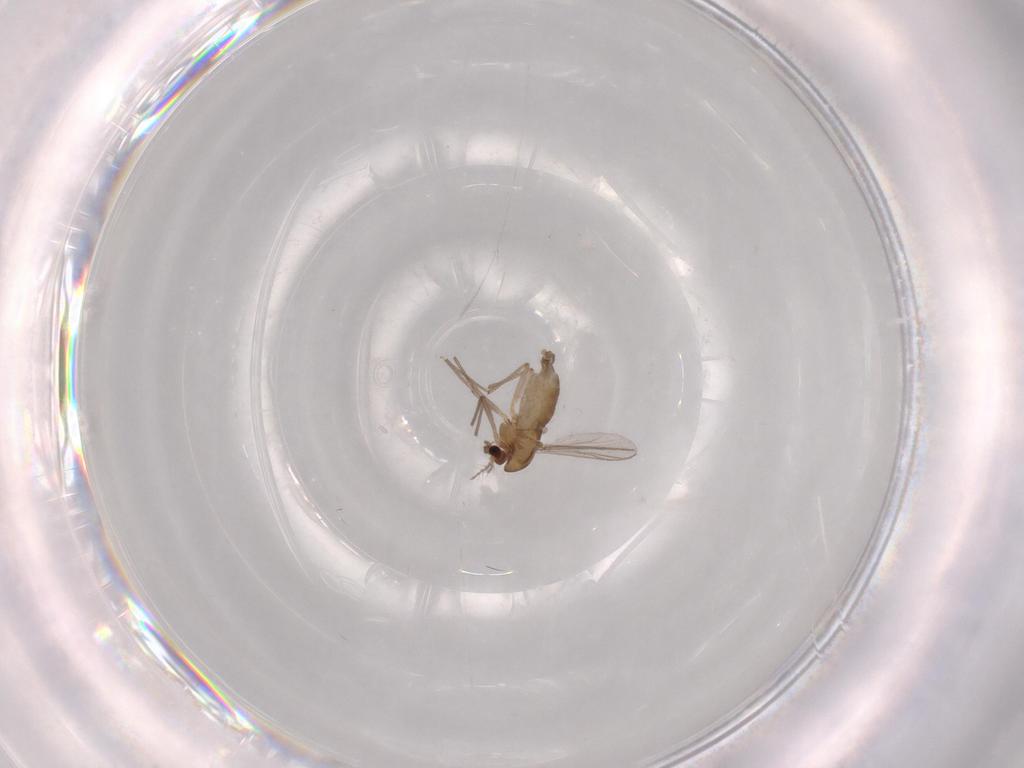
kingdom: Animalia
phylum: Arthropoda
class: Insecta
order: Diptera
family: Chironomidae
